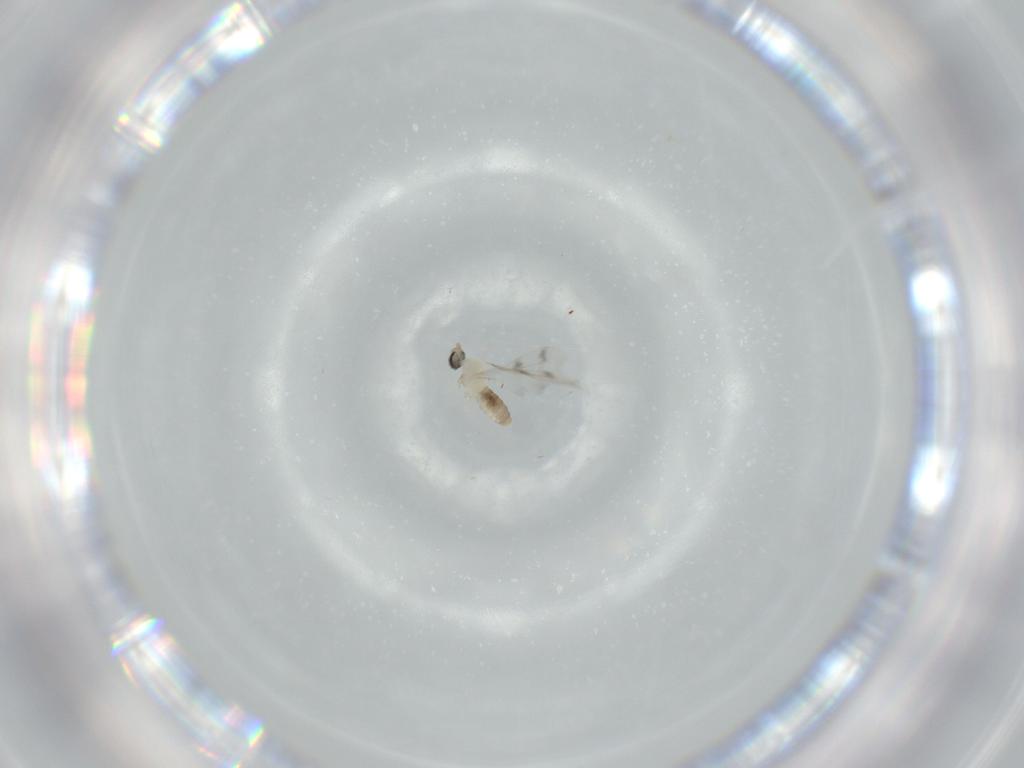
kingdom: Animalia
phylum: Arthropoda
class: Insecta
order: Diptera
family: Cecidomyiidae
